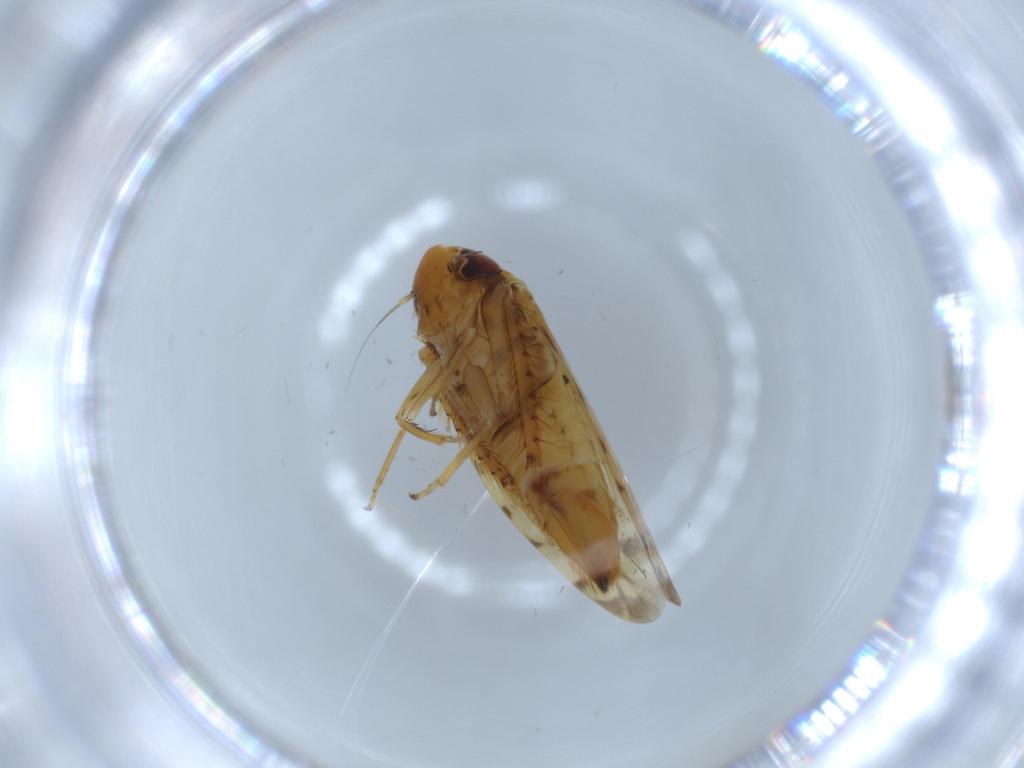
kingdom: Animalia
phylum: Arthropoda
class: Insecta
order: Hemiptera
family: Cicadellidae
